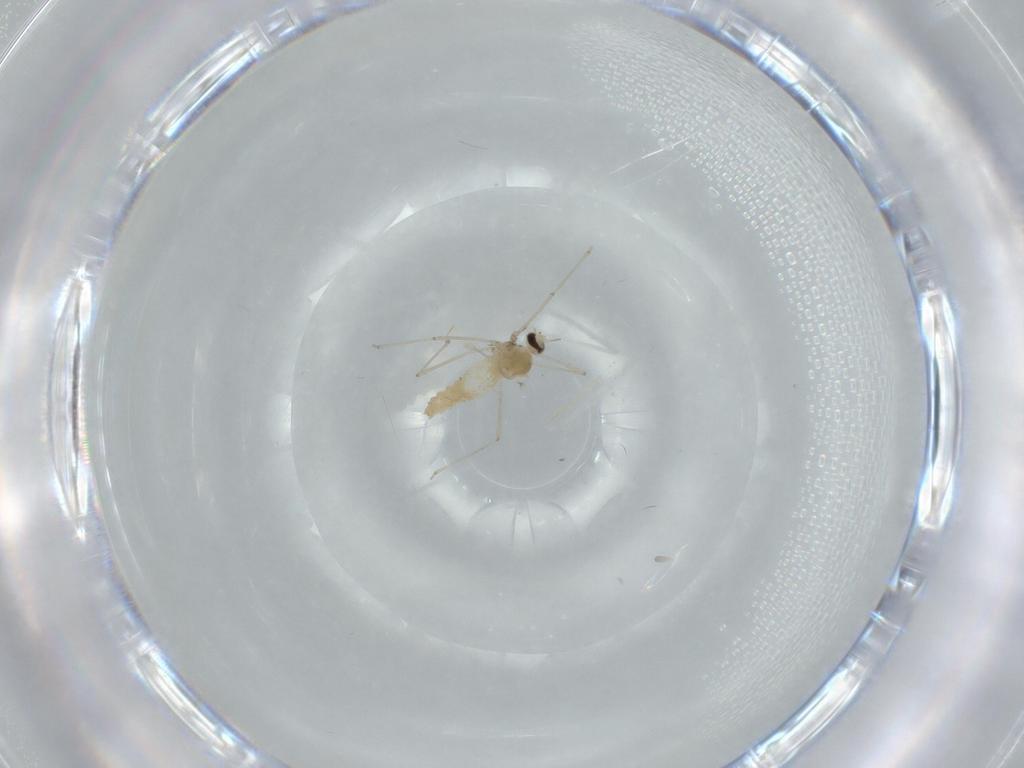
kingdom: Animalia
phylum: Arthropoda
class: Insecta
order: Diptera
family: Cecidomyiidae
